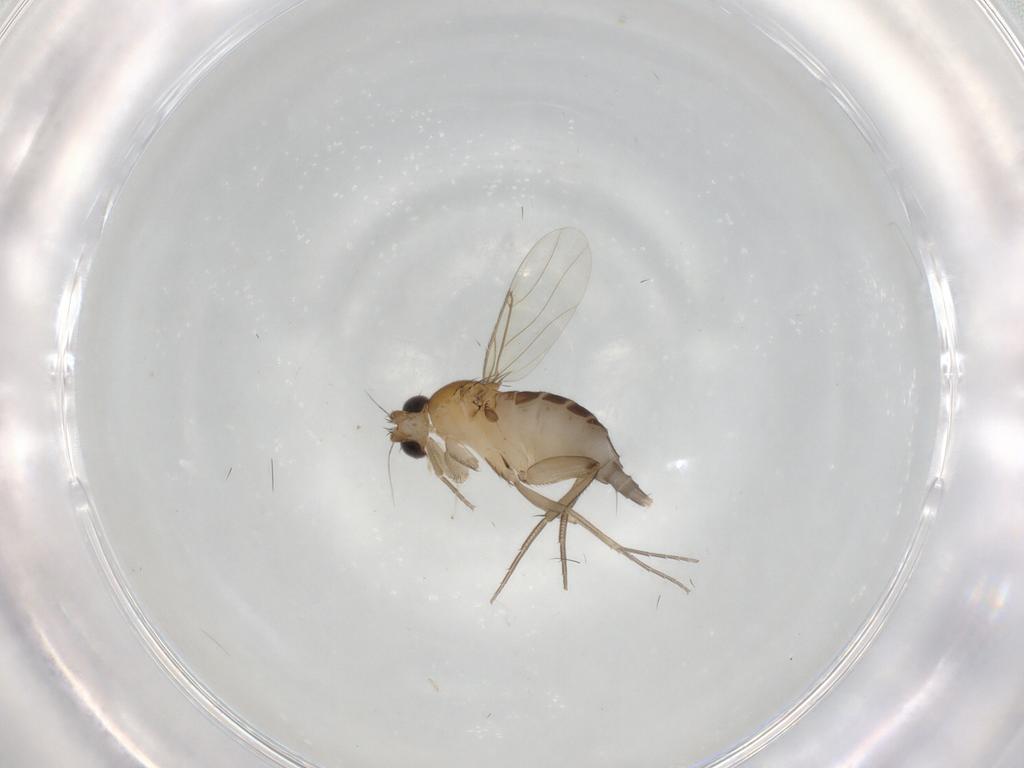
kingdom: Animalia
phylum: Arthropoda
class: Insecta
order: Diptera
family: Phoridae
